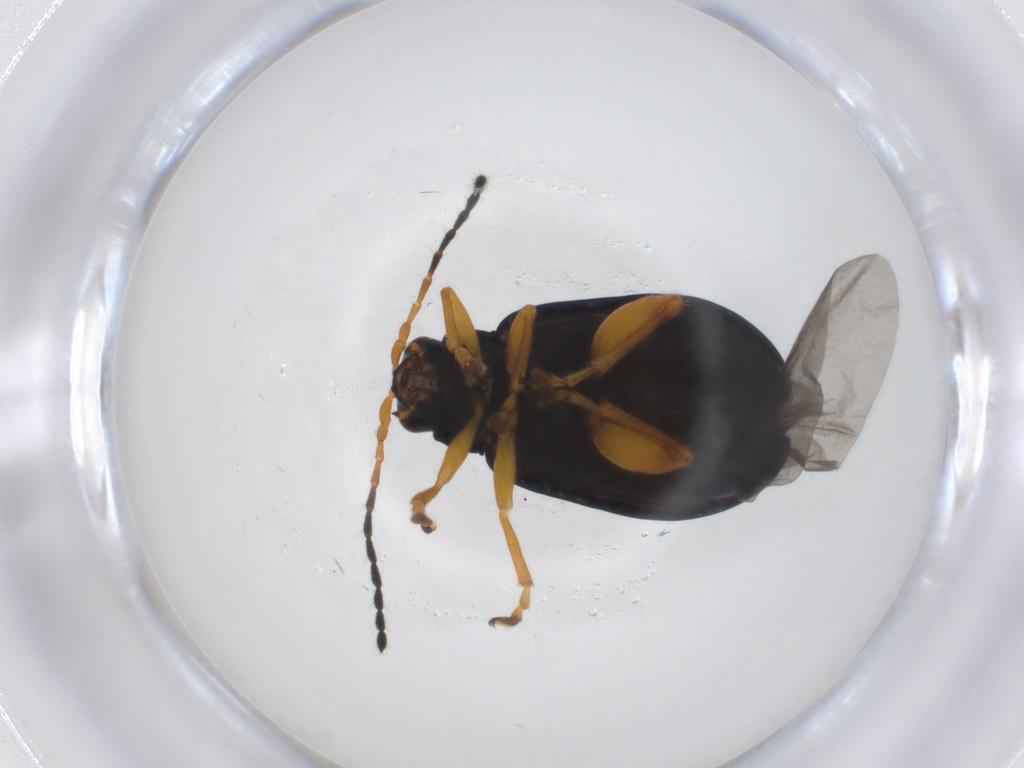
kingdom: Animalia
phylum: Arthropoda
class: Insecta
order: Coleoptera
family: Chrysomelidae
